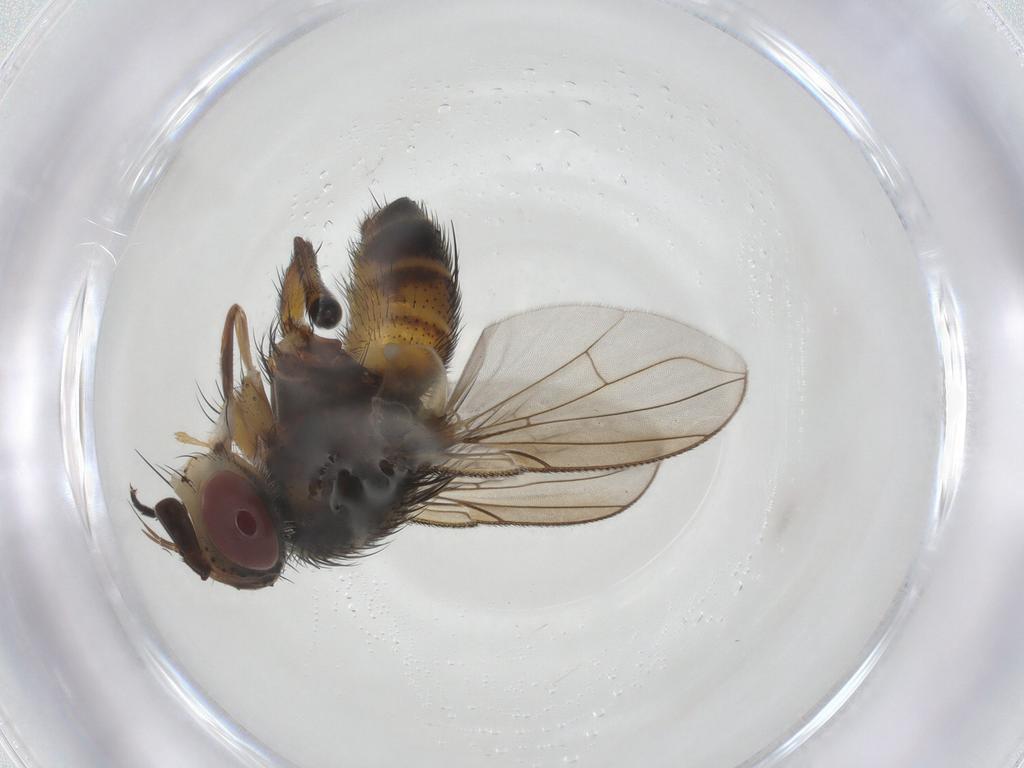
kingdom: Animalia
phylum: Arthropoda
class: Insecta
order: Diptera
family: Tachinidae
